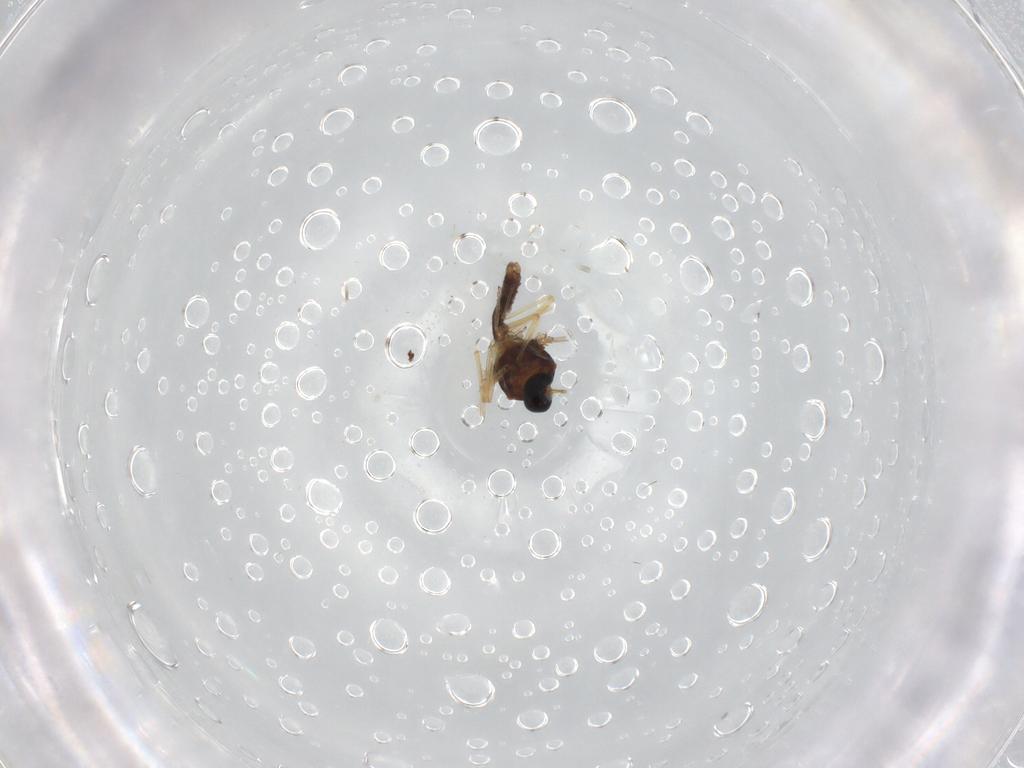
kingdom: Animalia
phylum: Arthropoda
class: Insecta
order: Diptera
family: Ceratopogonidae
